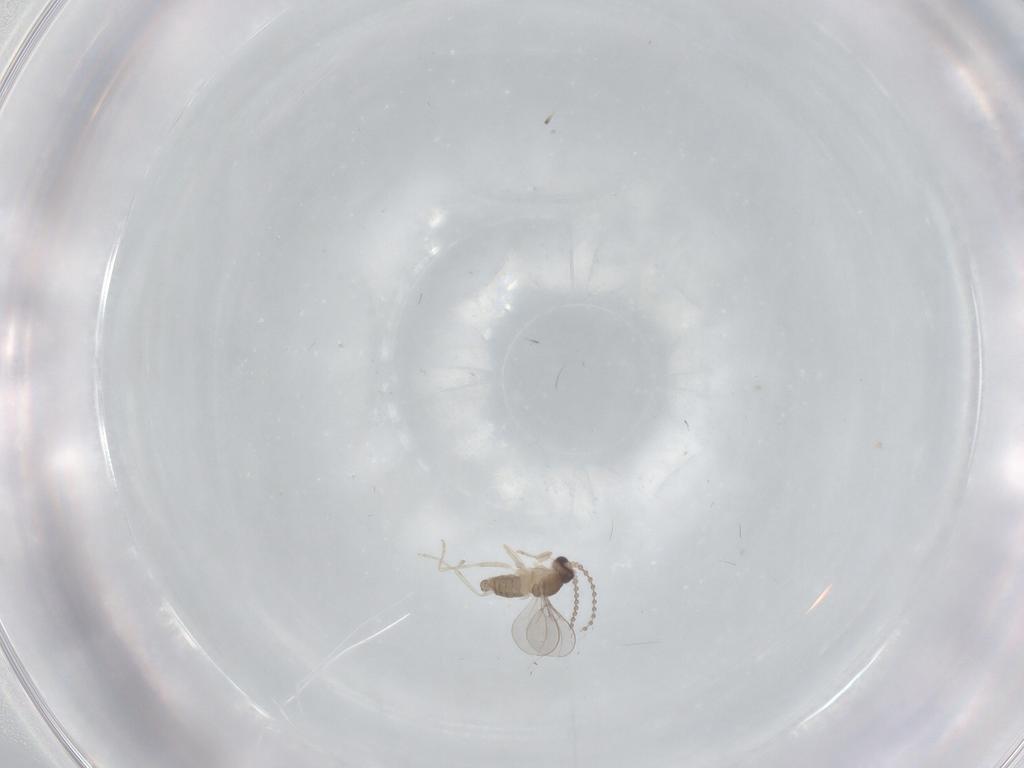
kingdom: Animalia
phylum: Arthropoda
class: Insecta
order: Diptera
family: Cecidomyiidae
